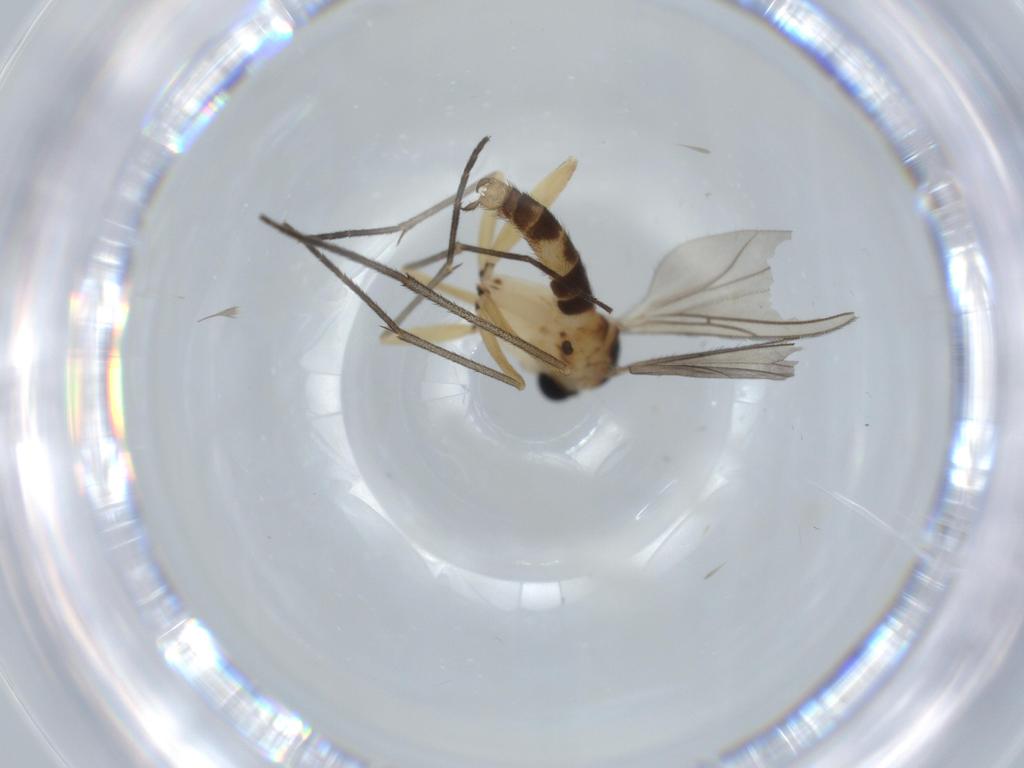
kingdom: Animalia
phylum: Arthropoda
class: Insecta
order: Diptera
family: Sciaridae
